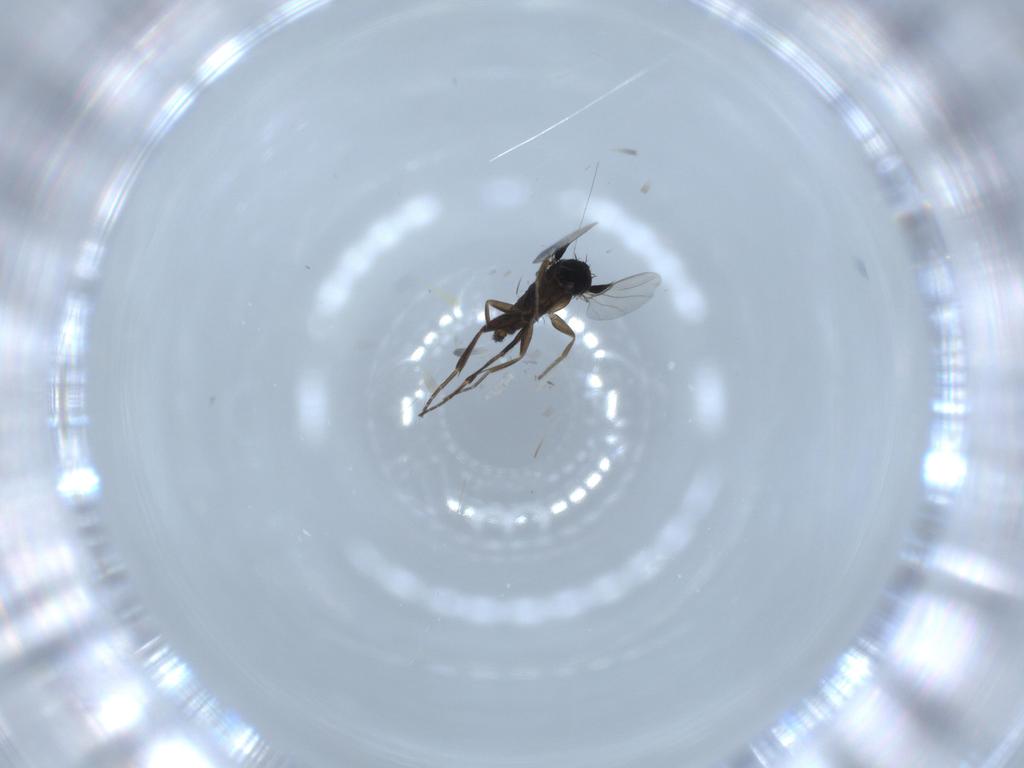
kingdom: Animalia
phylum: Arthropoda
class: Insecta
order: Diptera
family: Phoridae
